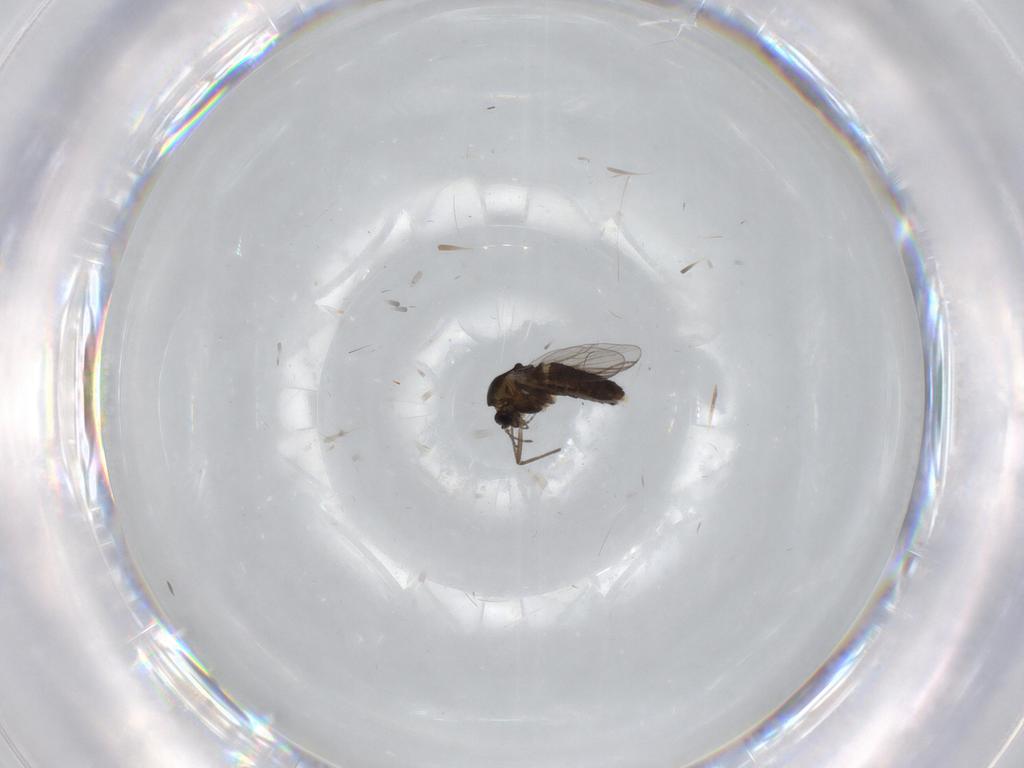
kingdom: Animalia
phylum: Arthropoda
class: Insecta
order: Diptera
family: Chironomidae
